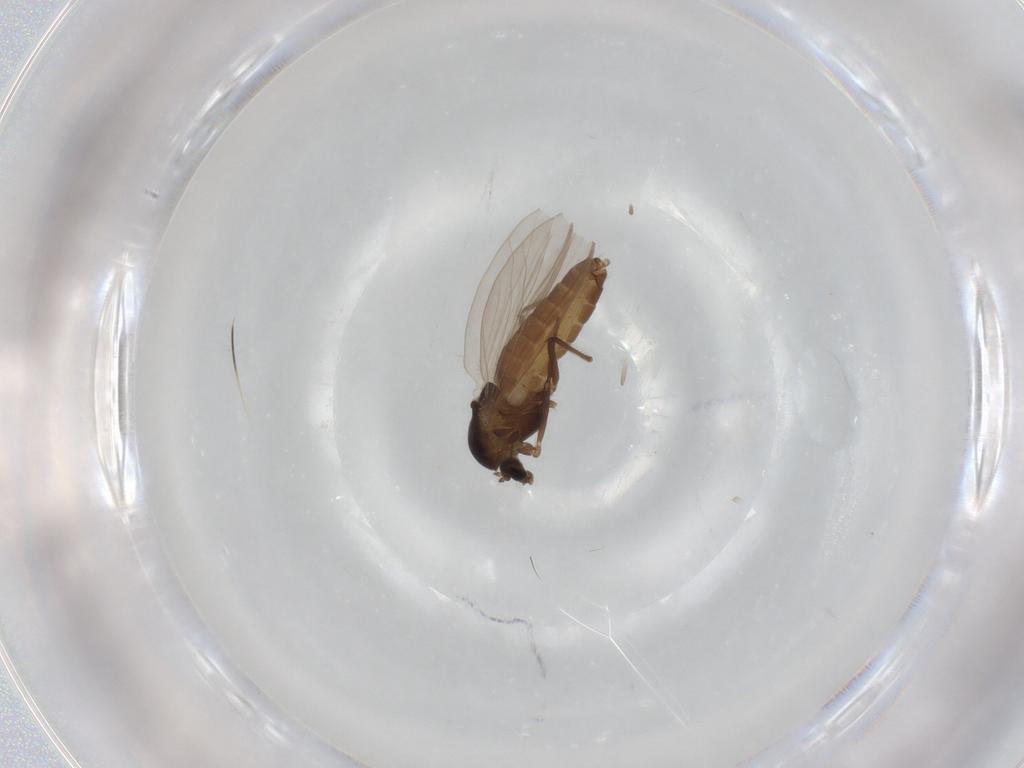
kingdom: Animalia
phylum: Arthropoda
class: Insecta
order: Diptera
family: Chironomidae
